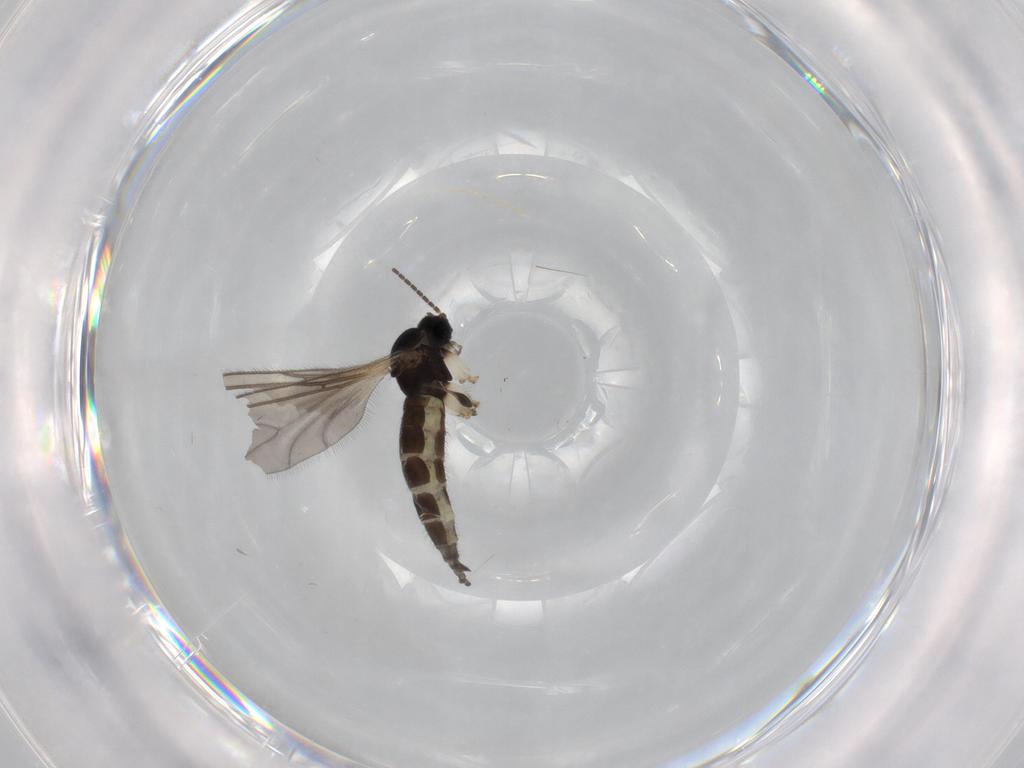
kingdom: Animalia
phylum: Arthropoda
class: Insecta
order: Diptera
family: Sciaridae
